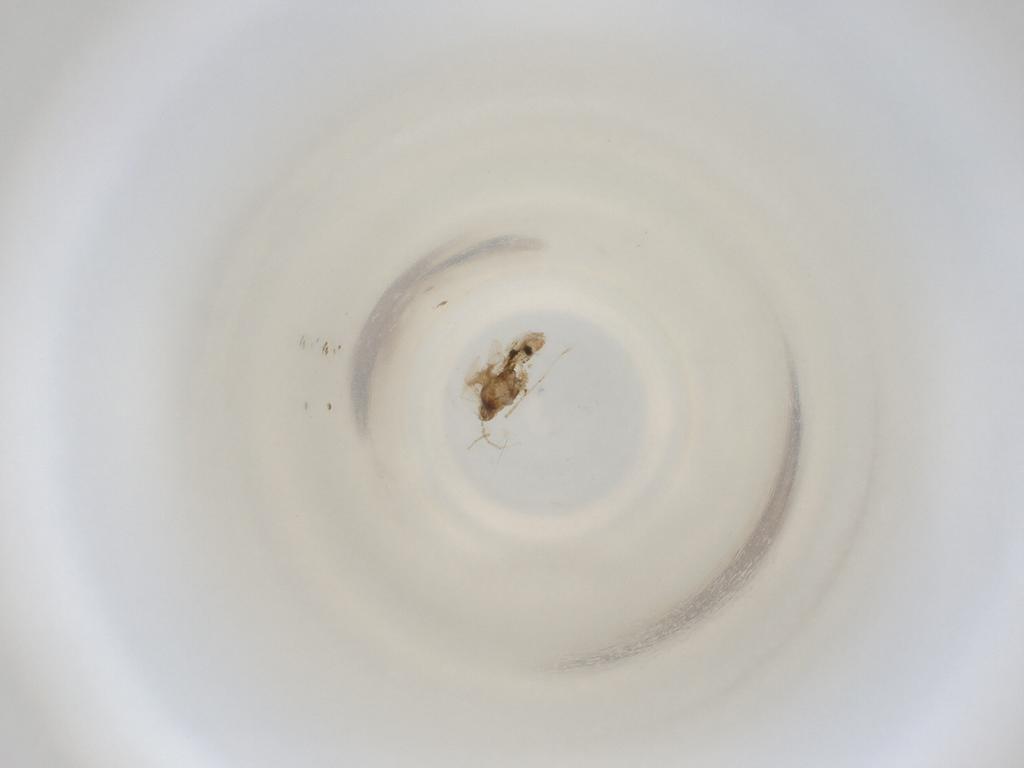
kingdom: Animalia
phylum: Arthropoda
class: Insecta
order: Diptera
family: Cecidomyiidae
